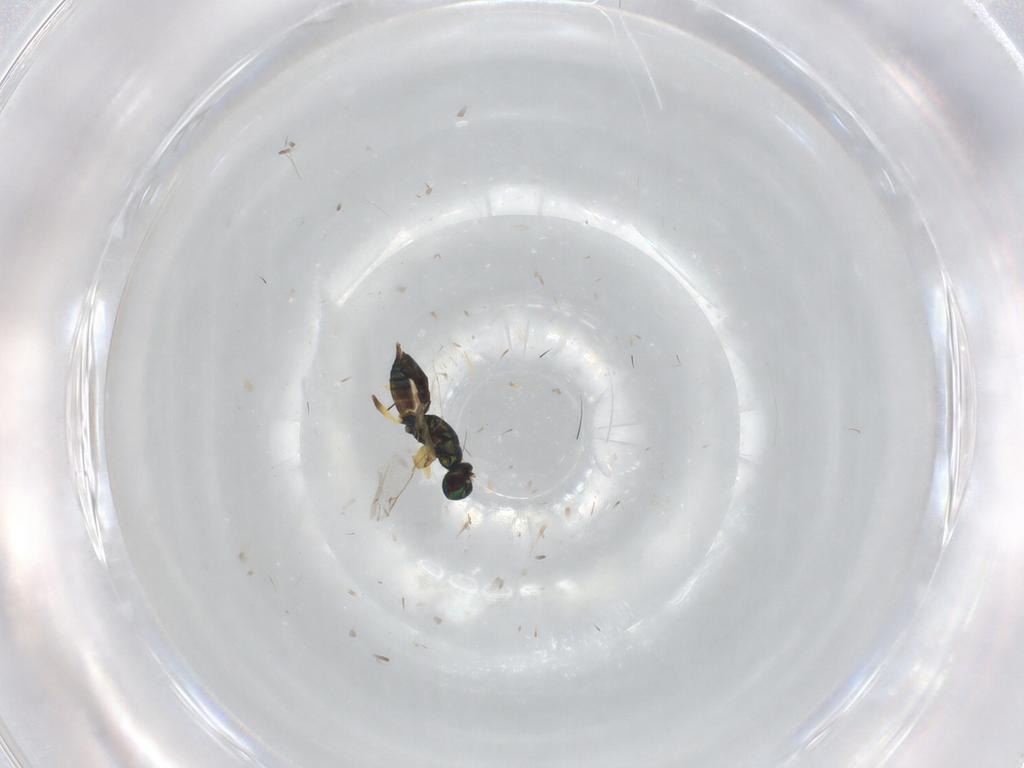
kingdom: Animalia
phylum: Arthropoda
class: Insecta
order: Hymenoptera
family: Eupelmidae
